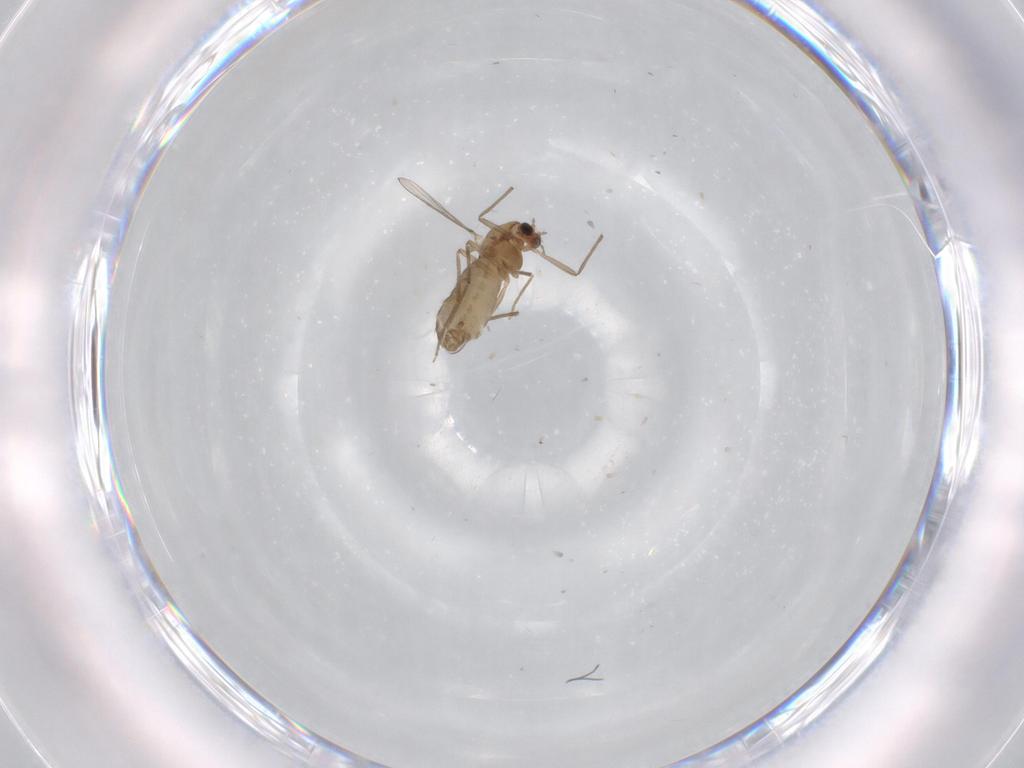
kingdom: Animalia
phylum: Arthropoda
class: Insecta
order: Diptera
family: Chironomidae
